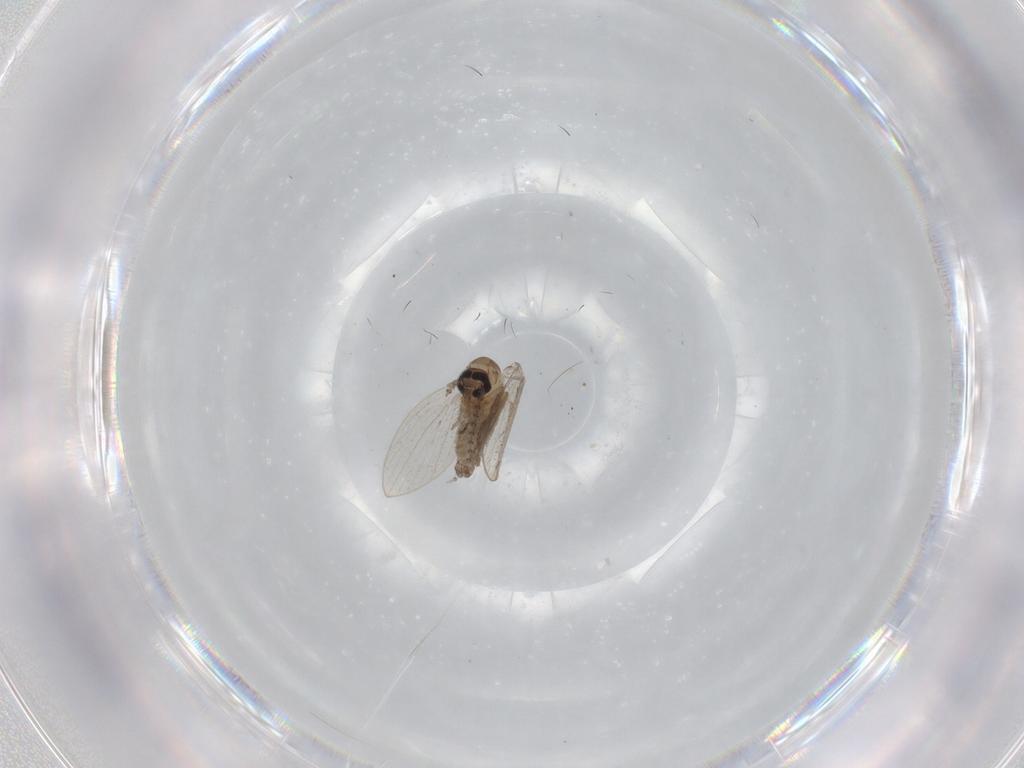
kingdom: Animalia
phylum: Arthropoda
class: Insecta
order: Diptera
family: Psychodidae
